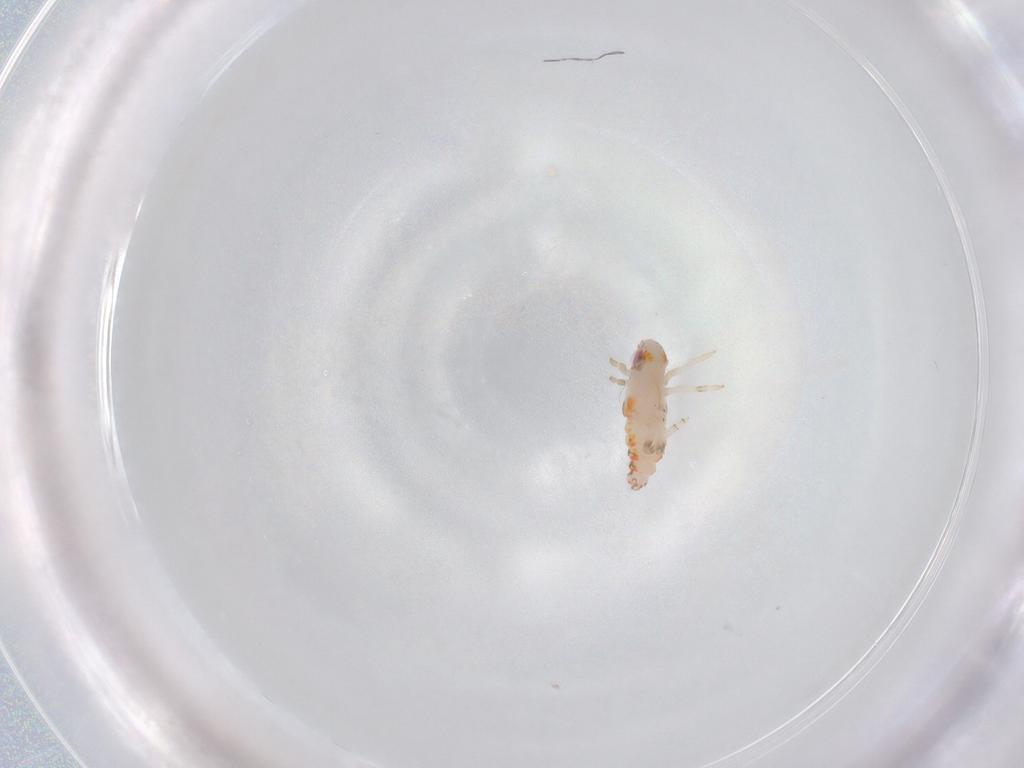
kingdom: Animalia
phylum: Arthropoda
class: Insecta
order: Hemiptera
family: Nogodinidae
